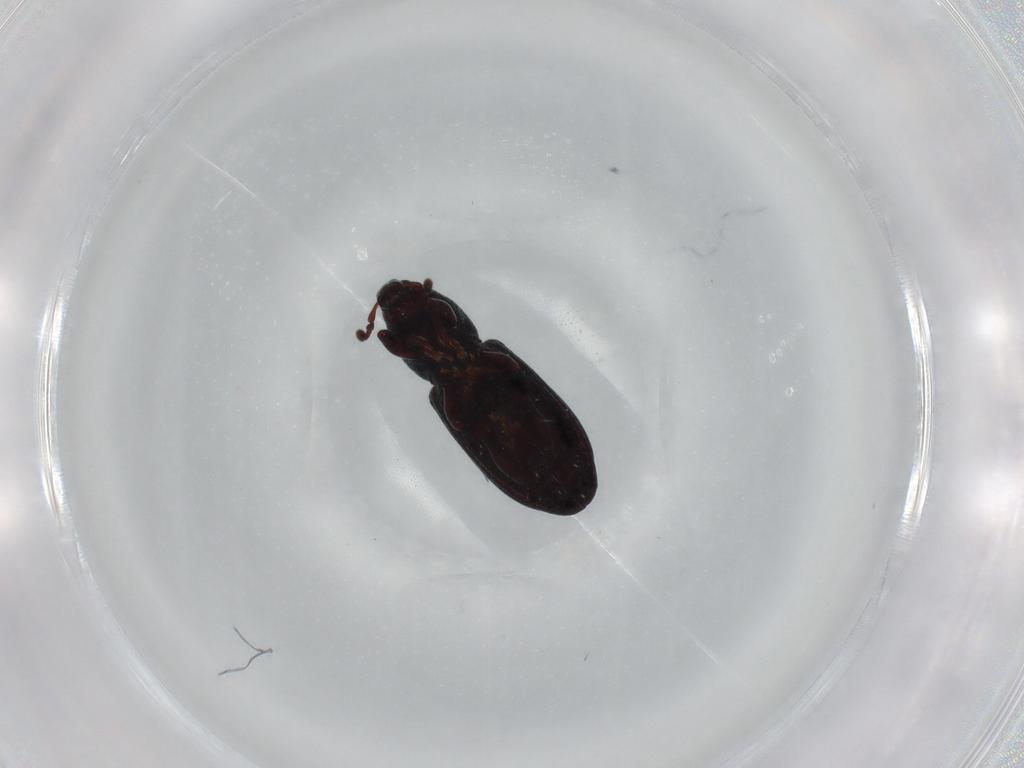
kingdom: Animalia
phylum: Arthropoda
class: Insecta
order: Coleoptera
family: Curculionidae
